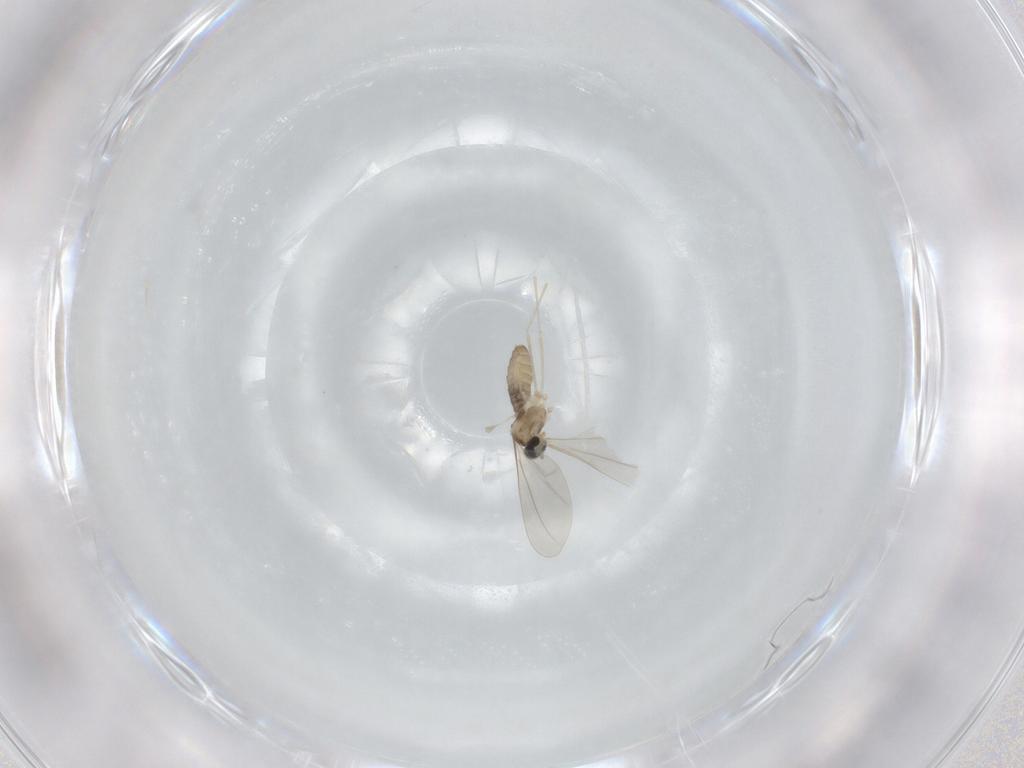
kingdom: Animalia
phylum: Arthropoda
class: Insecta
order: Diptera
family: Cecidomyiidae
